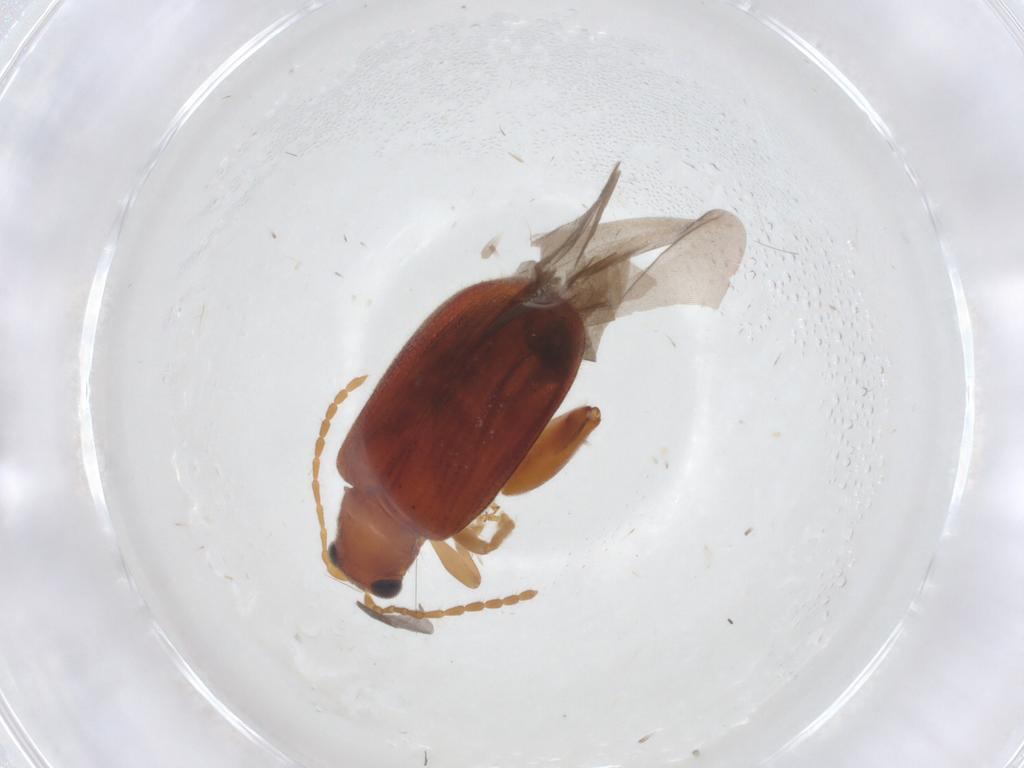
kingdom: Animalia
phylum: Arthropoda
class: Insecta
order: Coleoptera
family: Chrysomelidae
